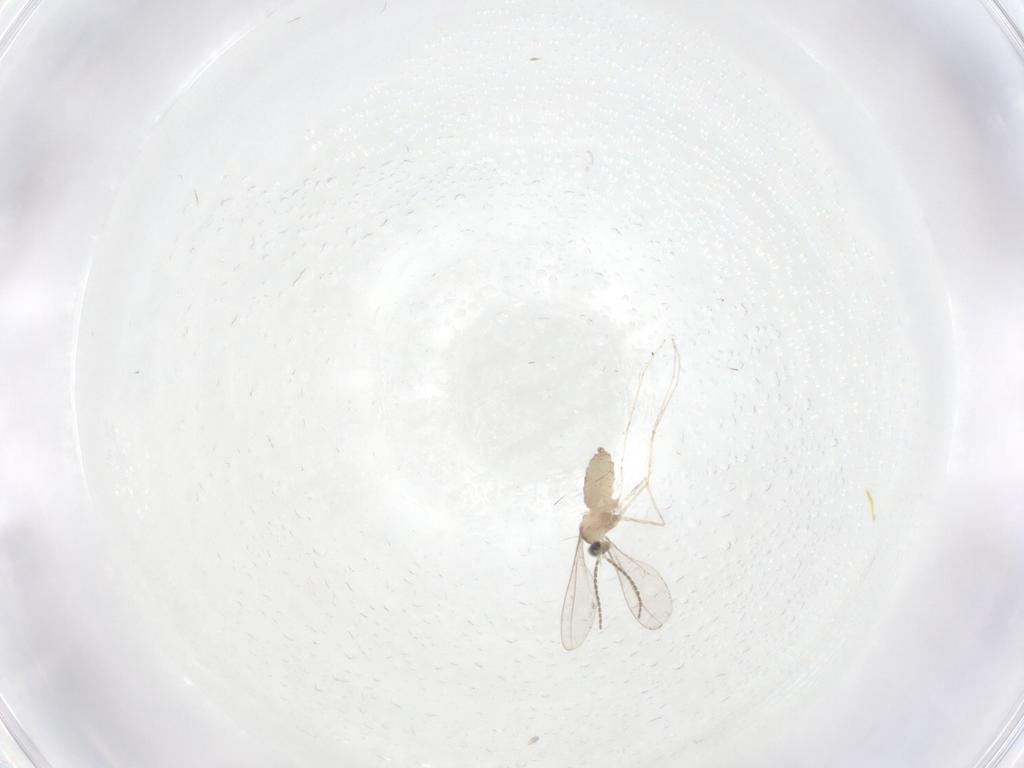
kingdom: Animalia
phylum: Arthropoda
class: Insecta
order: Diptera
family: Cecidomyiidae
